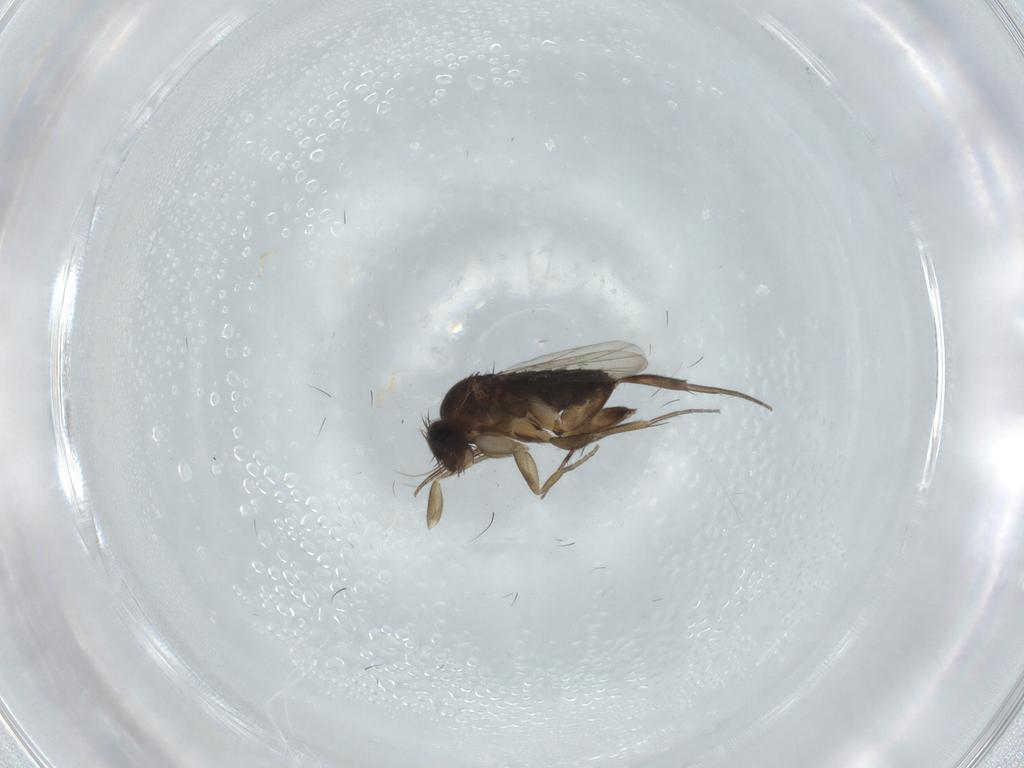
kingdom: Animalia
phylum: Arthropoda
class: Insecta
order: Diptera
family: Phoridae
